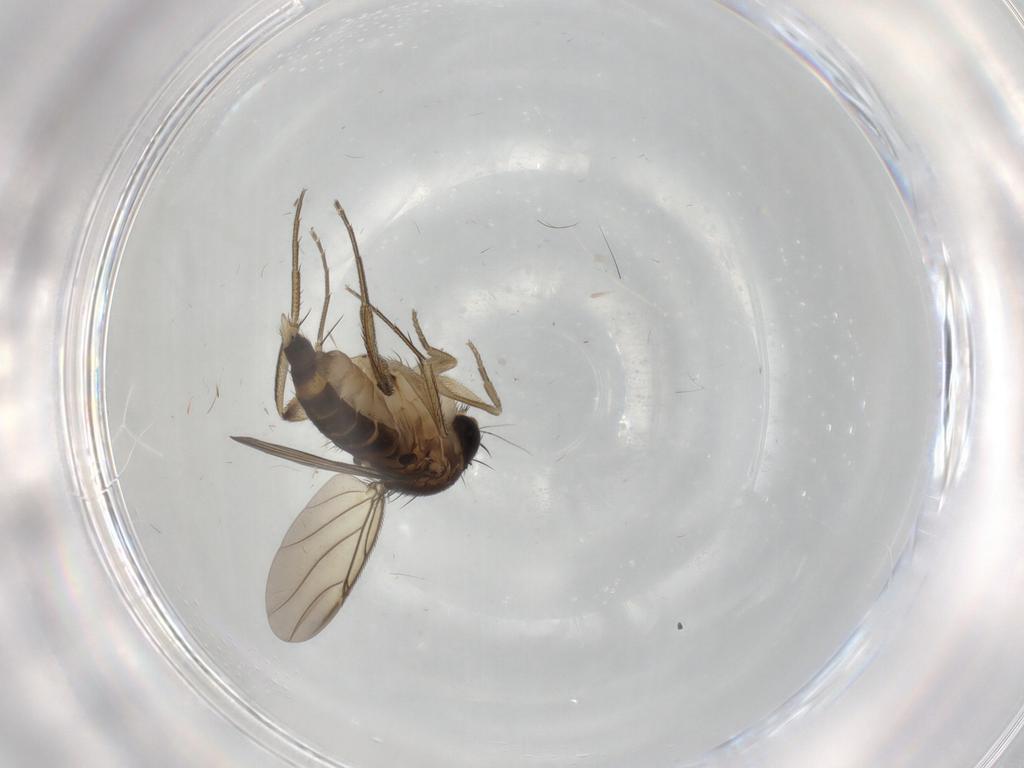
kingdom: Animalia
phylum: Arthropoda
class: Insecta
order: Diptera
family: Phoridae
